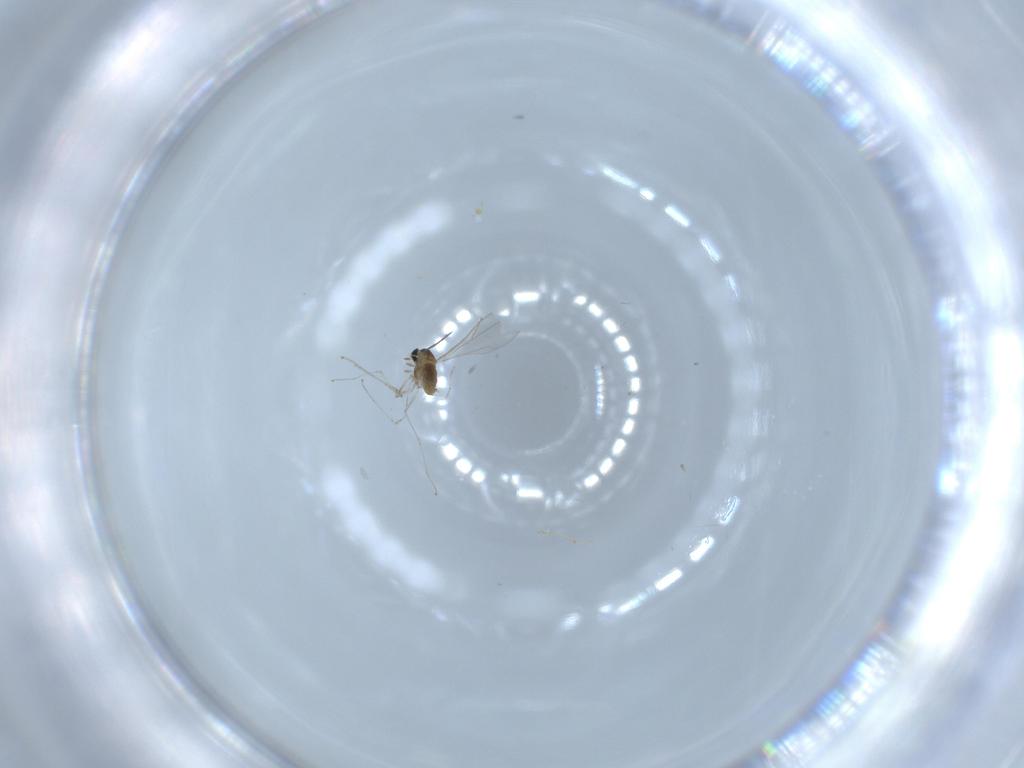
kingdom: Animalia
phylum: Arthropoda
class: Insecta
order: Diptera
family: Cecidomyiidae
